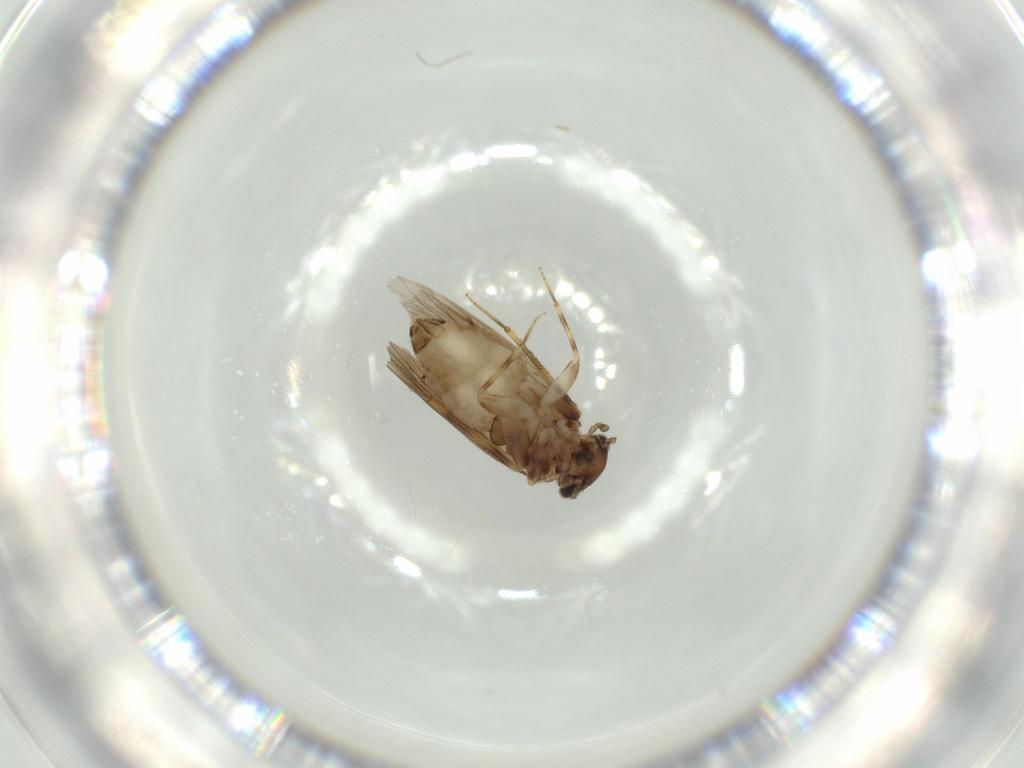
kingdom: Animalia
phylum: Arthropoda
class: Insecta
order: Psocodea
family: Lepidopsocidae
